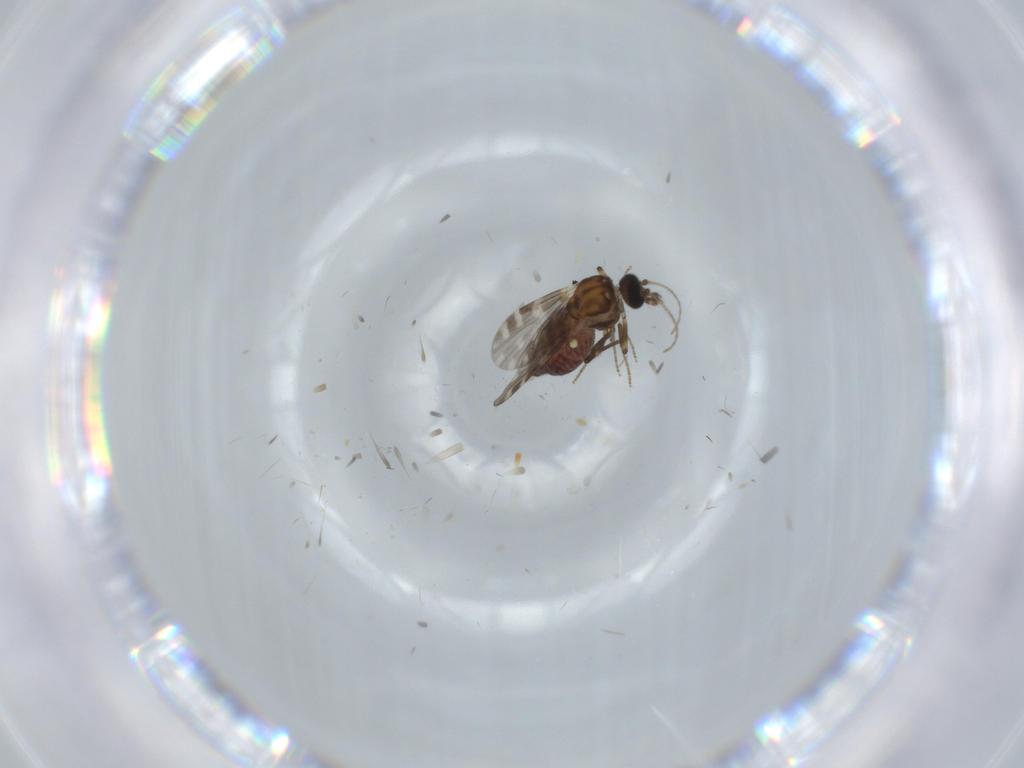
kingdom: Animalia
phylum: Arthropoda
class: Insecta
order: Diptera
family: Ceratopogonidae
